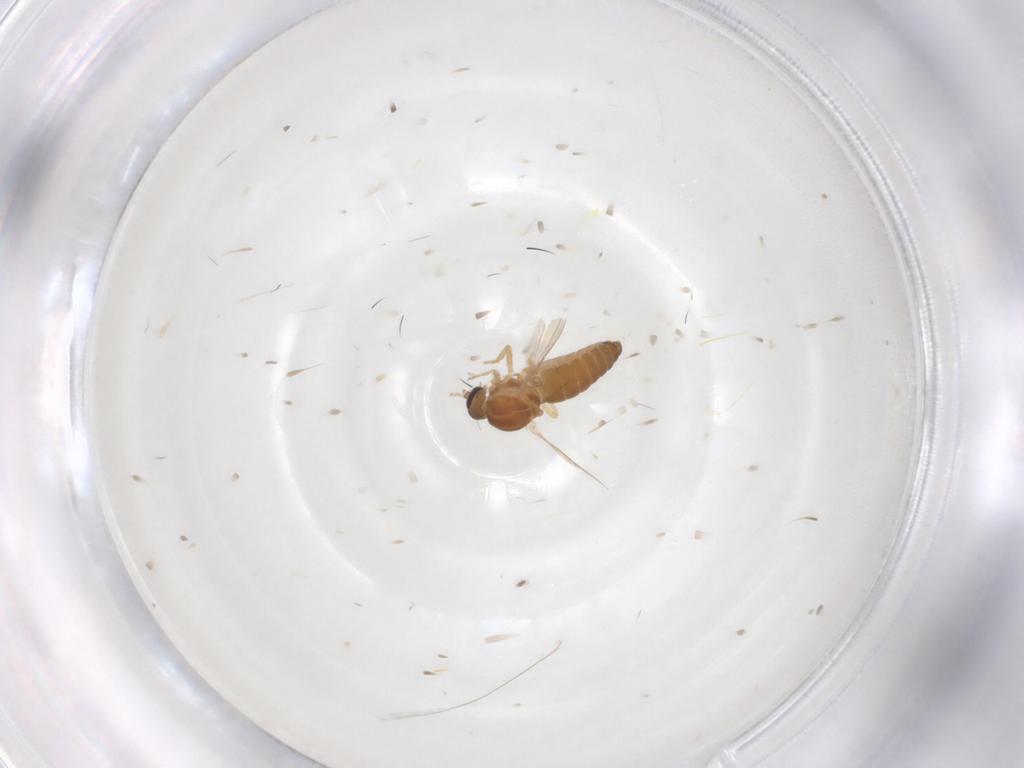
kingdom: Animalia
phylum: Arthropoda
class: Insecta
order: Diptera
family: Ceratopogonidae
